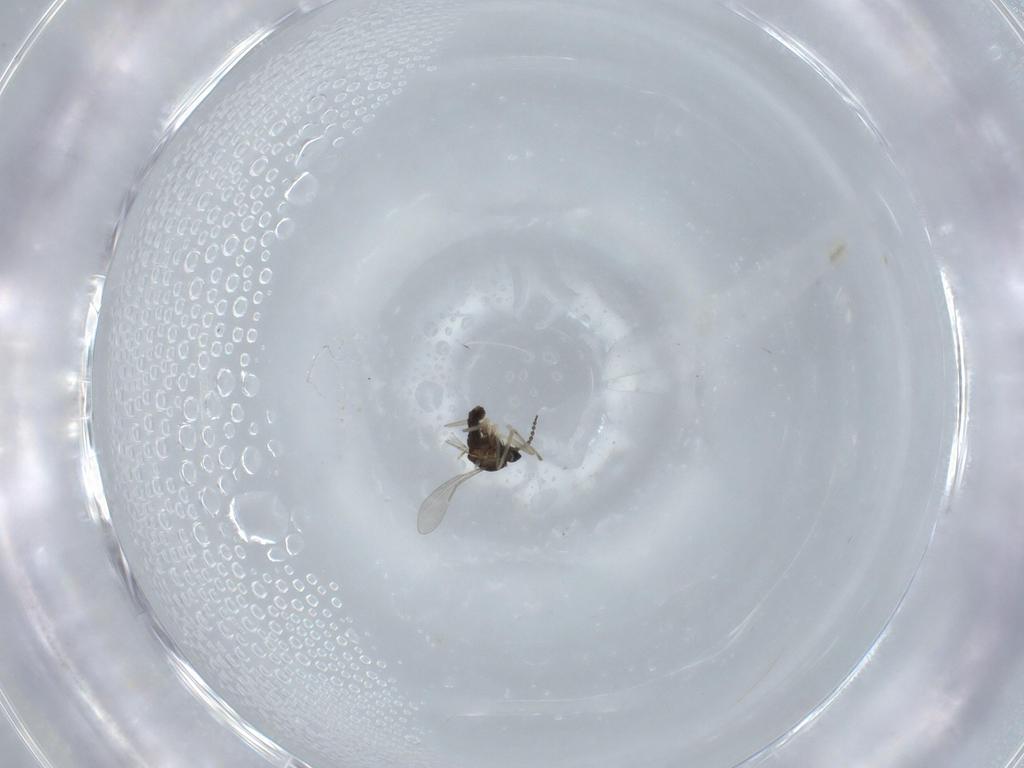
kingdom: Animalia
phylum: Arthropoda
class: Insecta
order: Diptera
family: Cecidomyiidae
